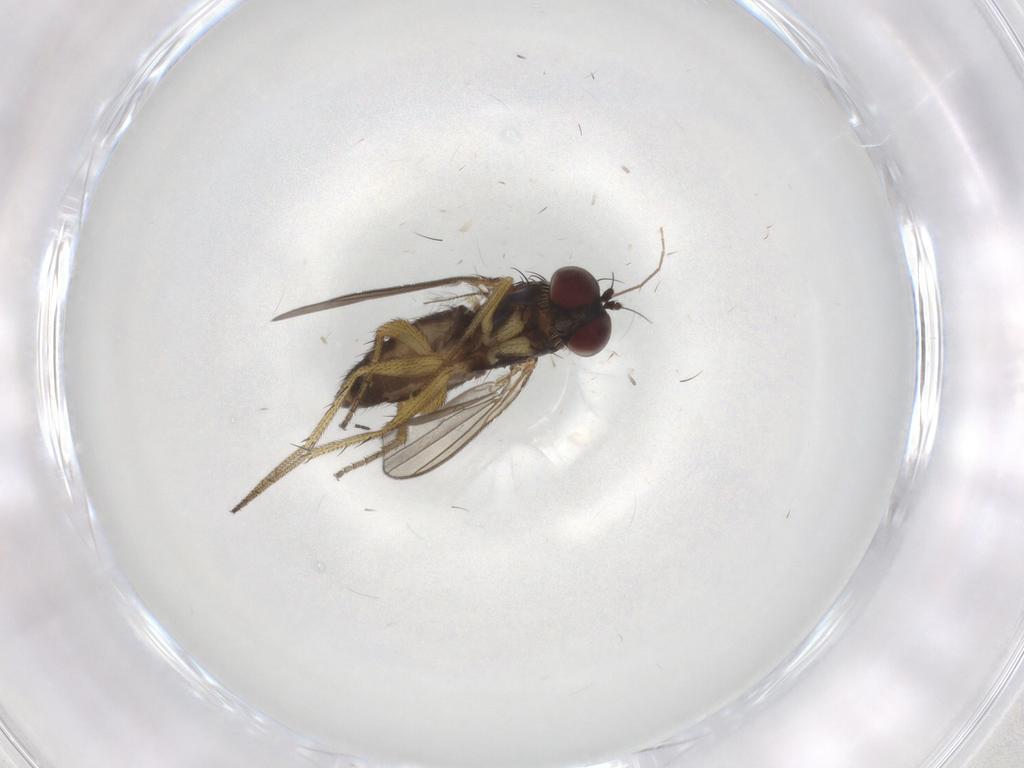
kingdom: Animalia
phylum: Arthropoda
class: Insecta
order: Diptera
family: Dolichopodidae
